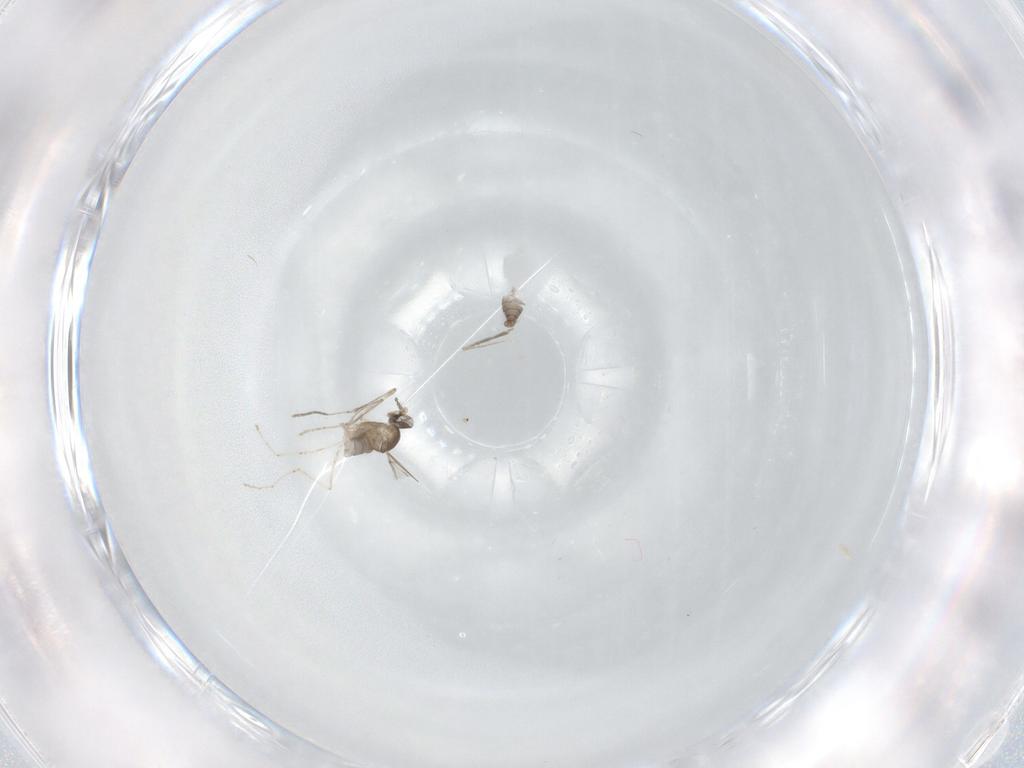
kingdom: Animalia
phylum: Arthropoda
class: Insecta
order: Diptera
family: Cecidomyiidae
